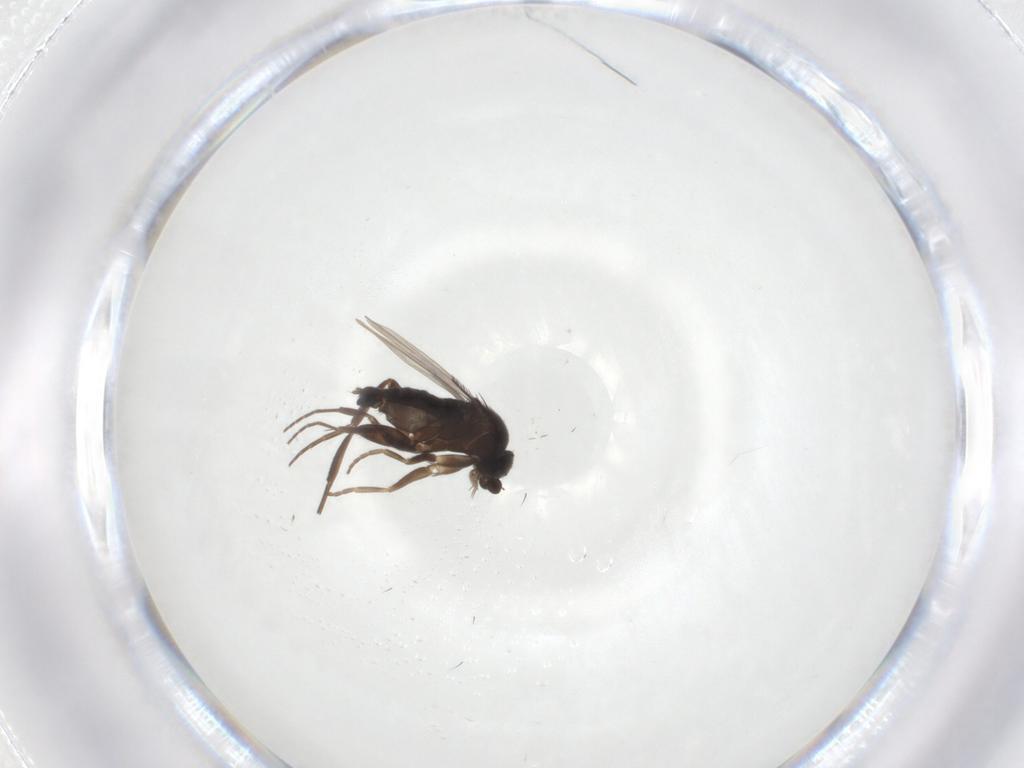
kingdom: Animalia
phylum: Arthropoda
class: Insecta
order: Diptera
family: Phoridae
